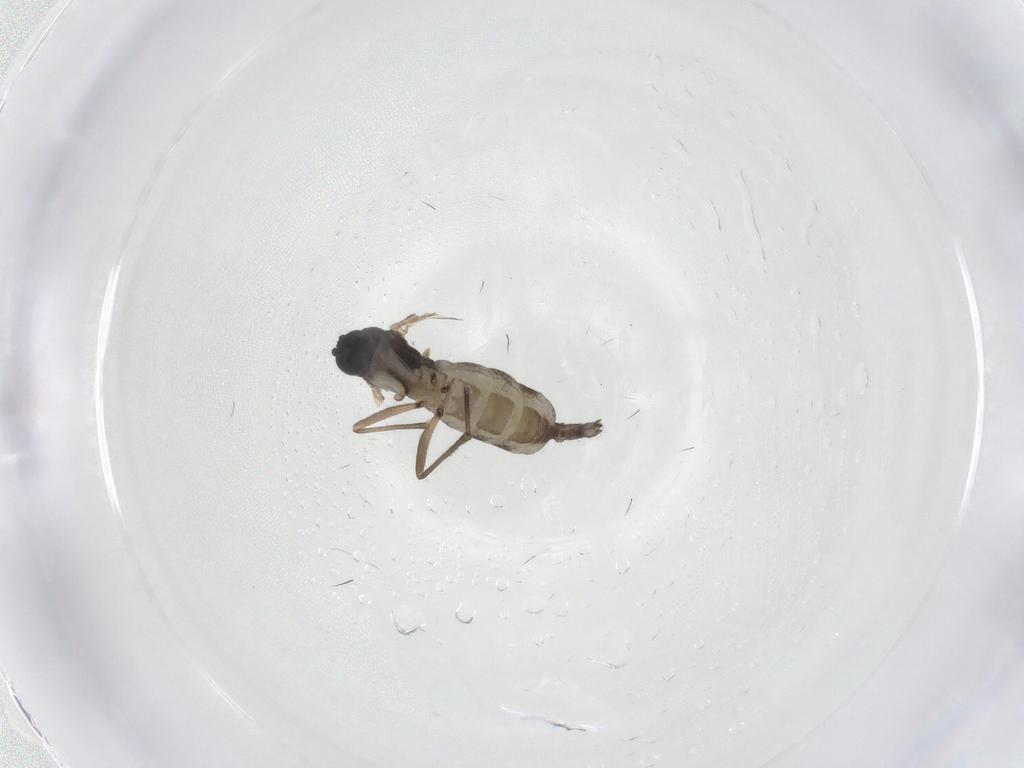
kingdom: Animalia
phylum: Arthropoda
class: Insecta
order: Diptera
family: Sciaridae
